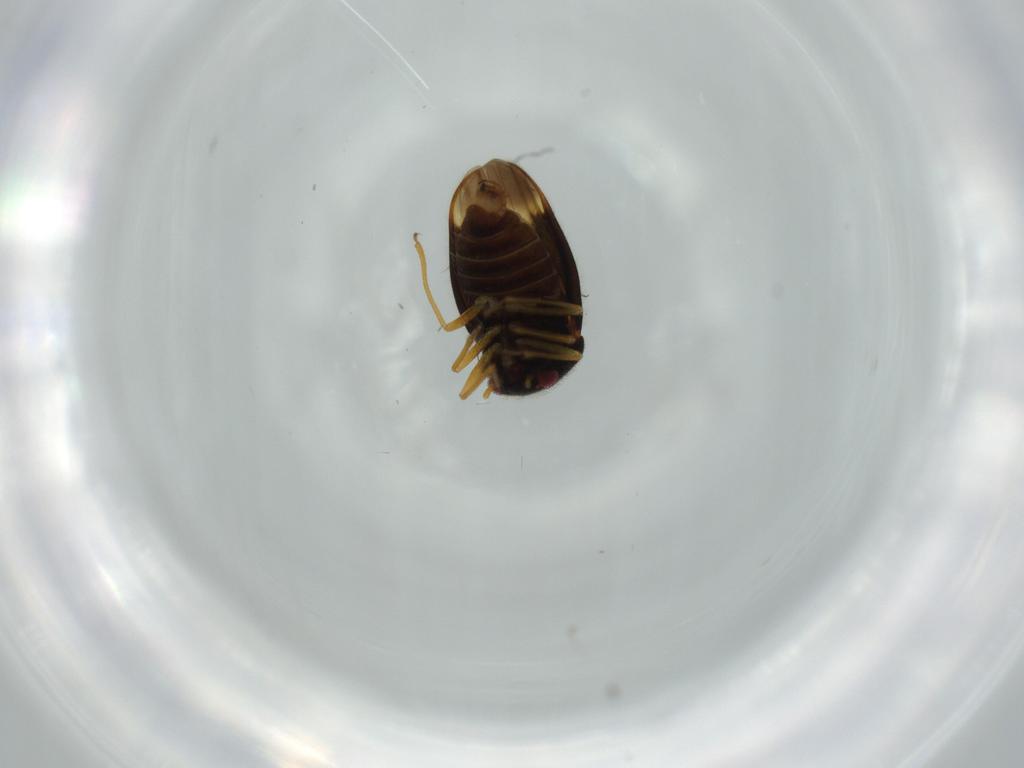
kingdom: Animalia
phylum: Arthropoda
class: Insecta
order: Hemiptera
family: Schizopteridae
